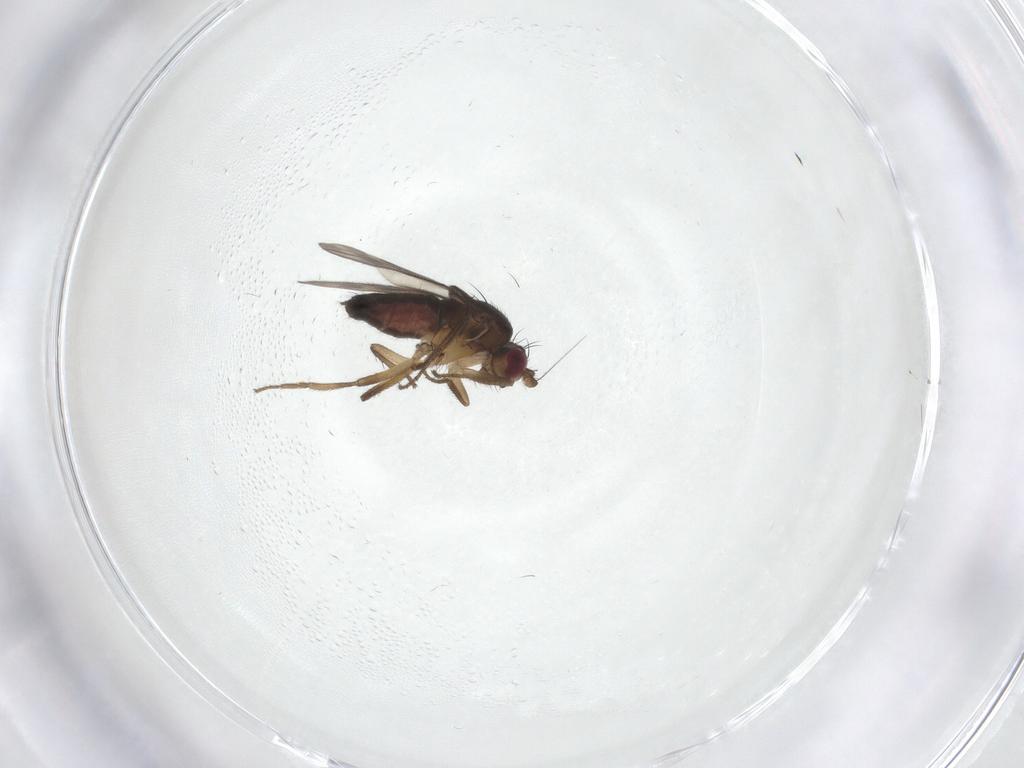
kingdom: Animalia
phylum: Arthropoda
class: Insecta
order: Diptera
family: Sphaeroceridae
